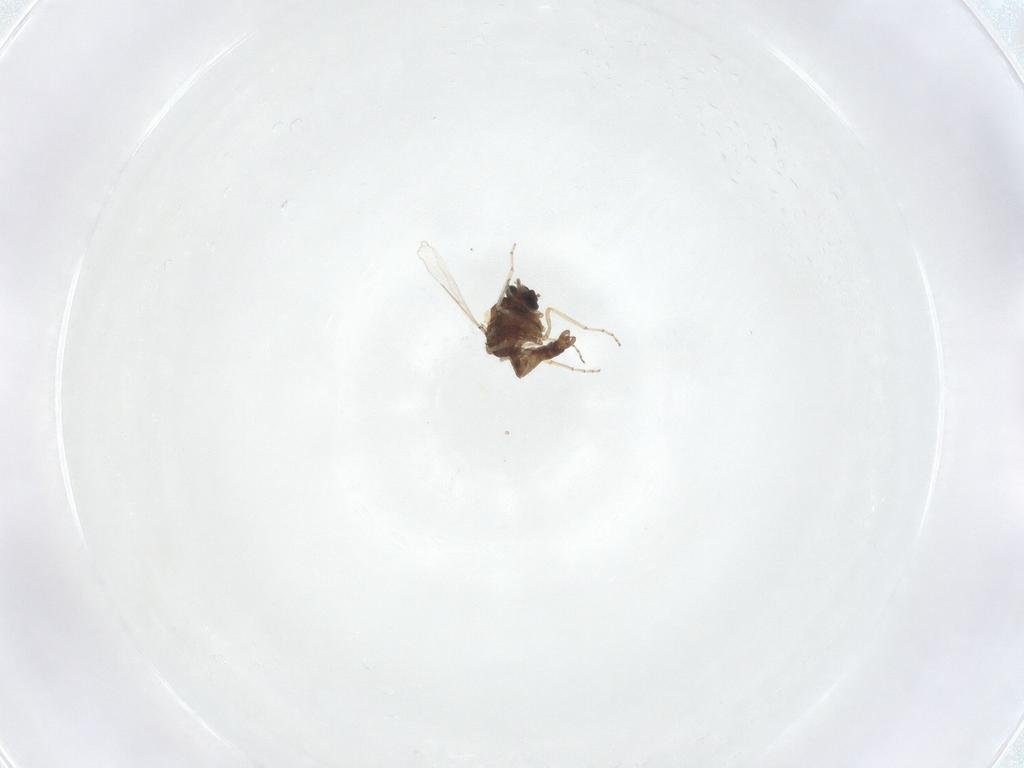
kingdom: Animalia
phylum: Arthropoda
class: Insecta
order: Diptera
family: Ceratopogonidae
